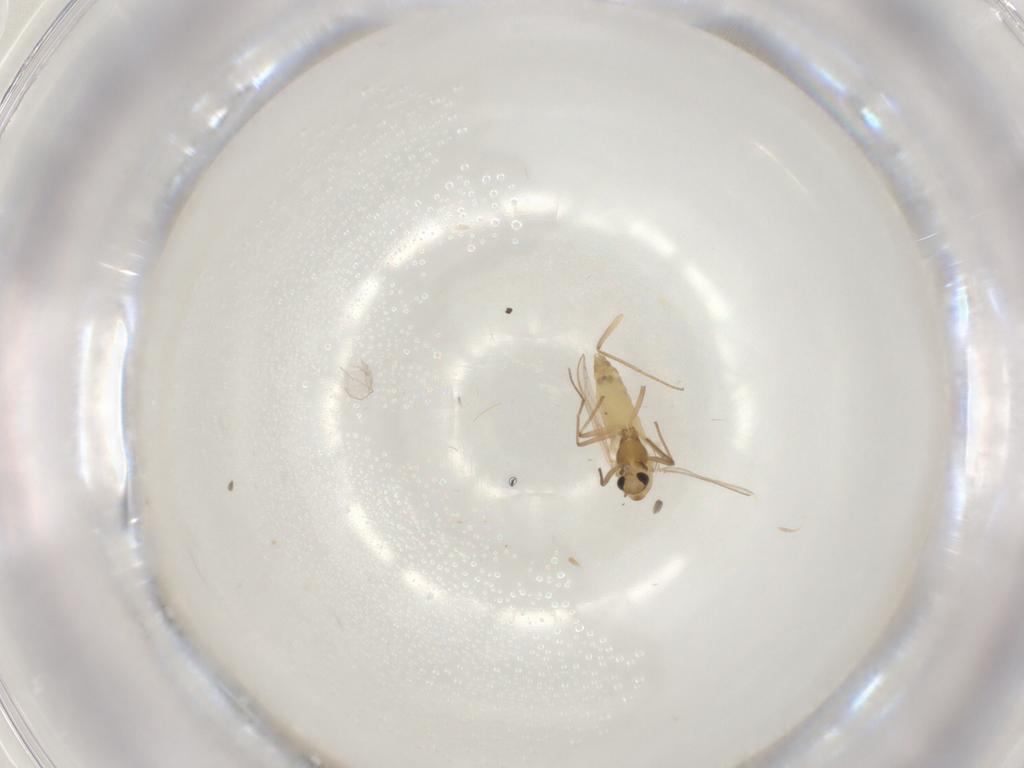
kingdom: Animalia
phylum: Arthropoda
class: Insecta
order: Diptera
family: Chironomidae
